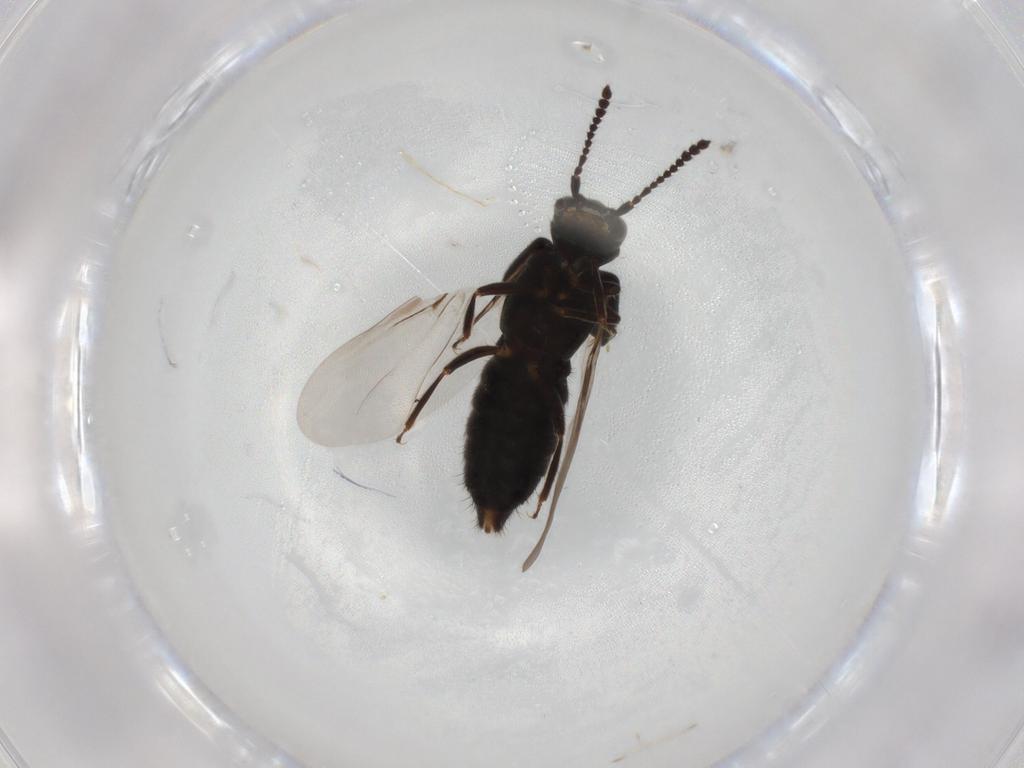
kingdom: Animalia
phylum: Arthropoda
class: Insecta
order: Coleoptera
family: Staphylinidae
